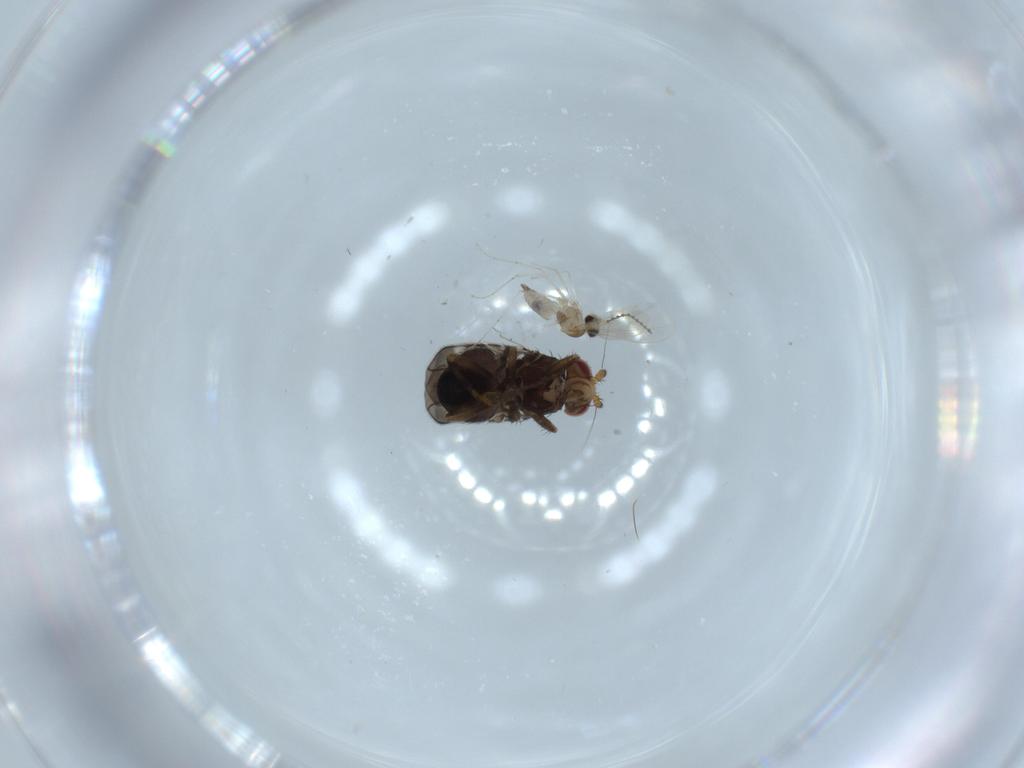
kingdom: Animalia
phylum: Arthropoda
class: Insecta
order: Diptera
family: Sphaeroceridae
